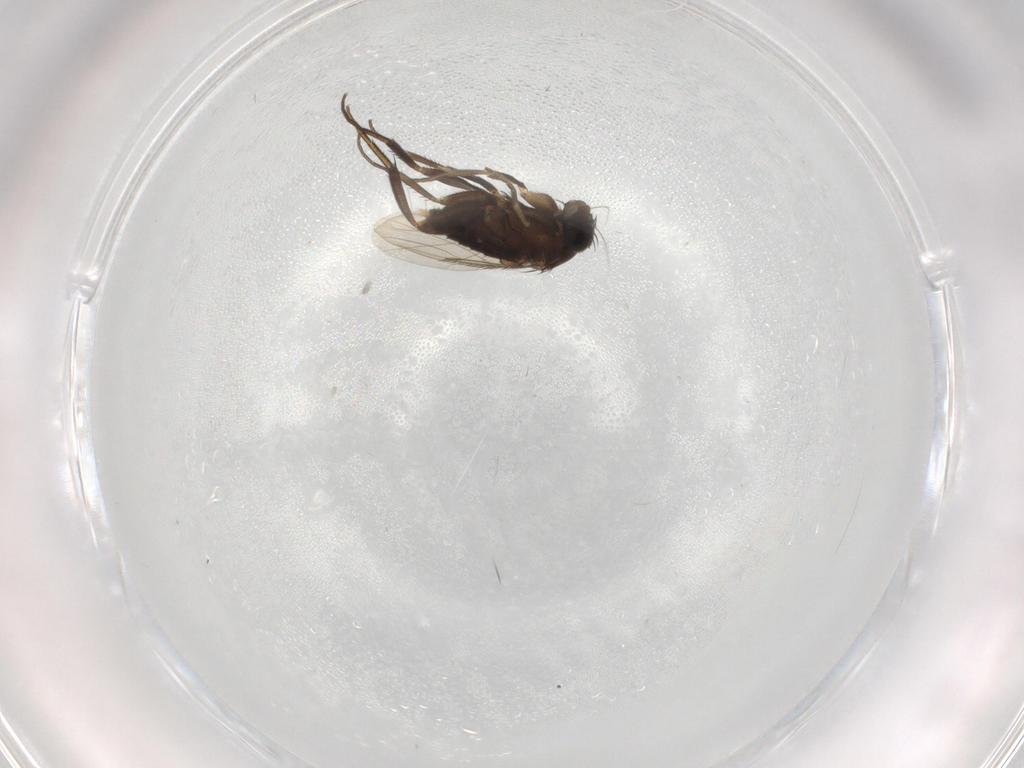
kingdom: Animalia
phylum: Arthropoda
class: Insecta
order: Diptera
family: Phoridae
